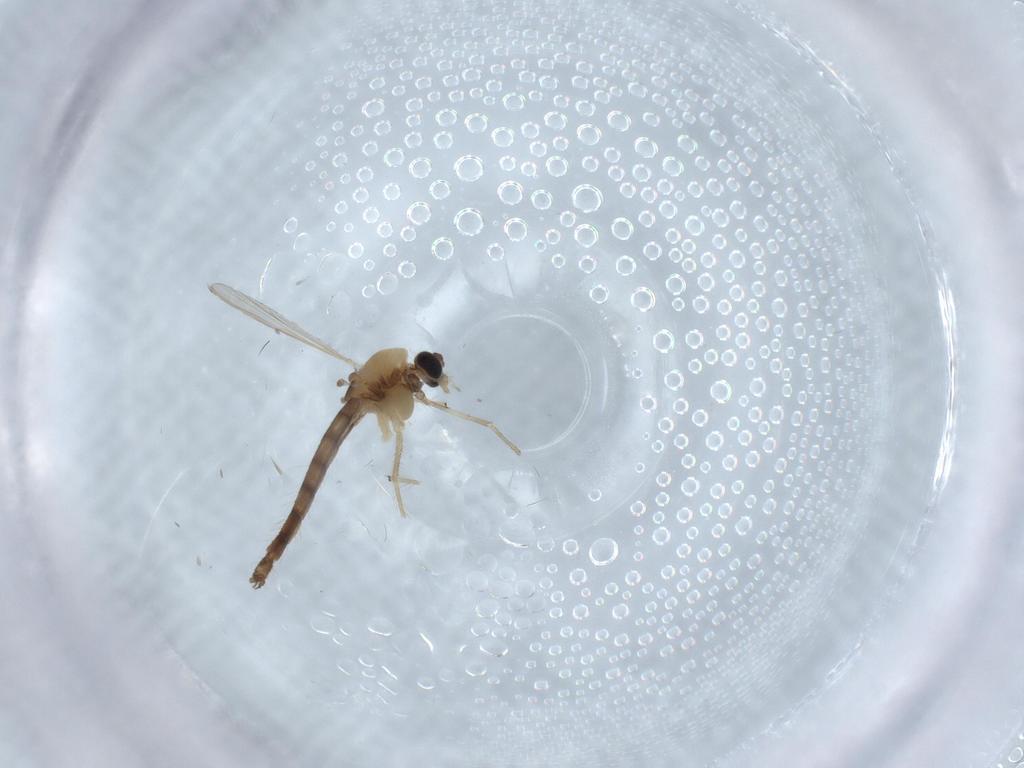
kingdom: Animalia
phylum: Arthropoda
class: Insecta
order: Diptera
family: Chironomidae
